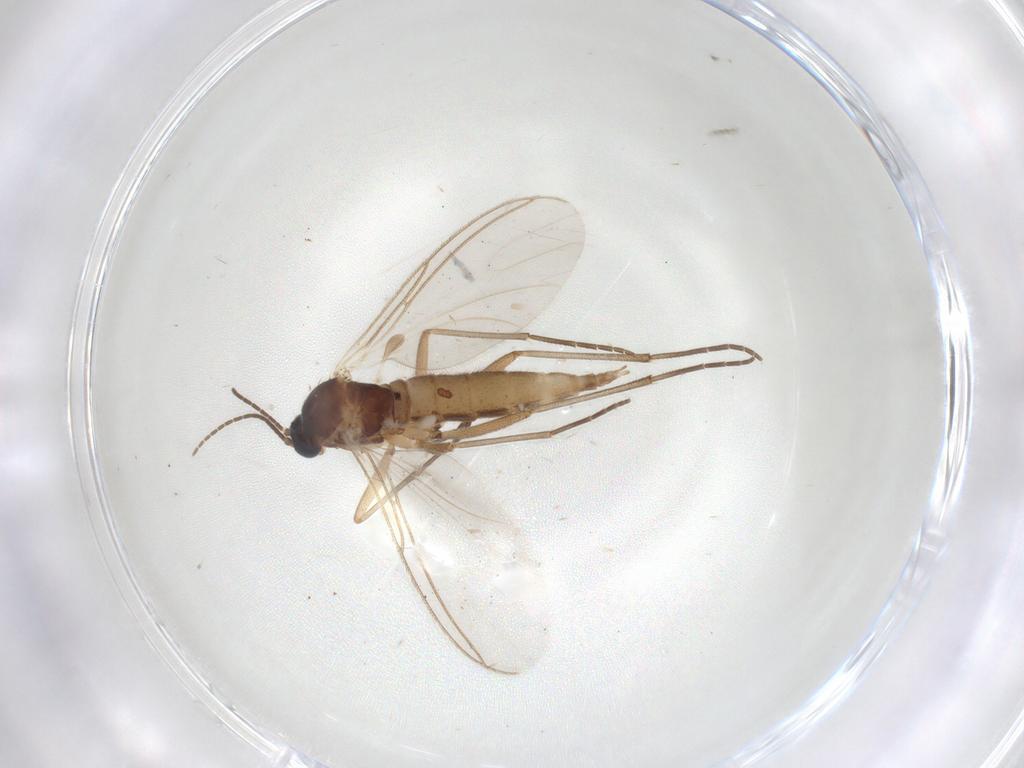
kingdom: Animalia
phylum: Arthropoda
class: Insecta
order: Diptera
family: Sciaridae
